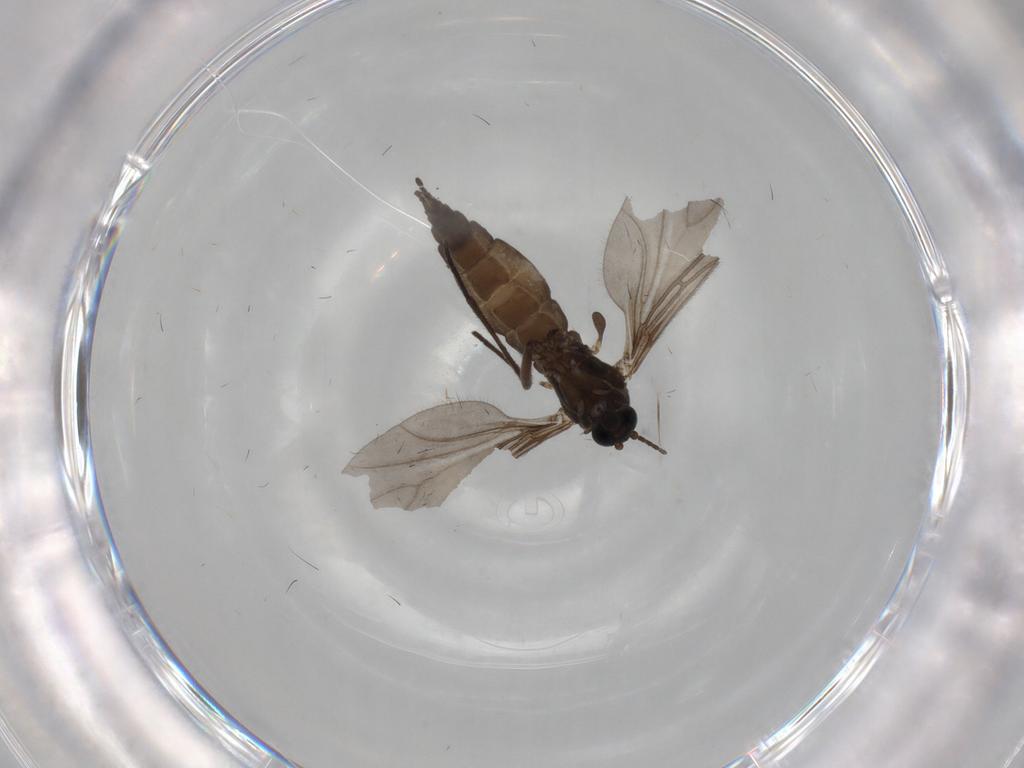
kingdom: Animalia
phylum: Arthropoda
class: Insecta
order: Diptera
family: Sciaridae
